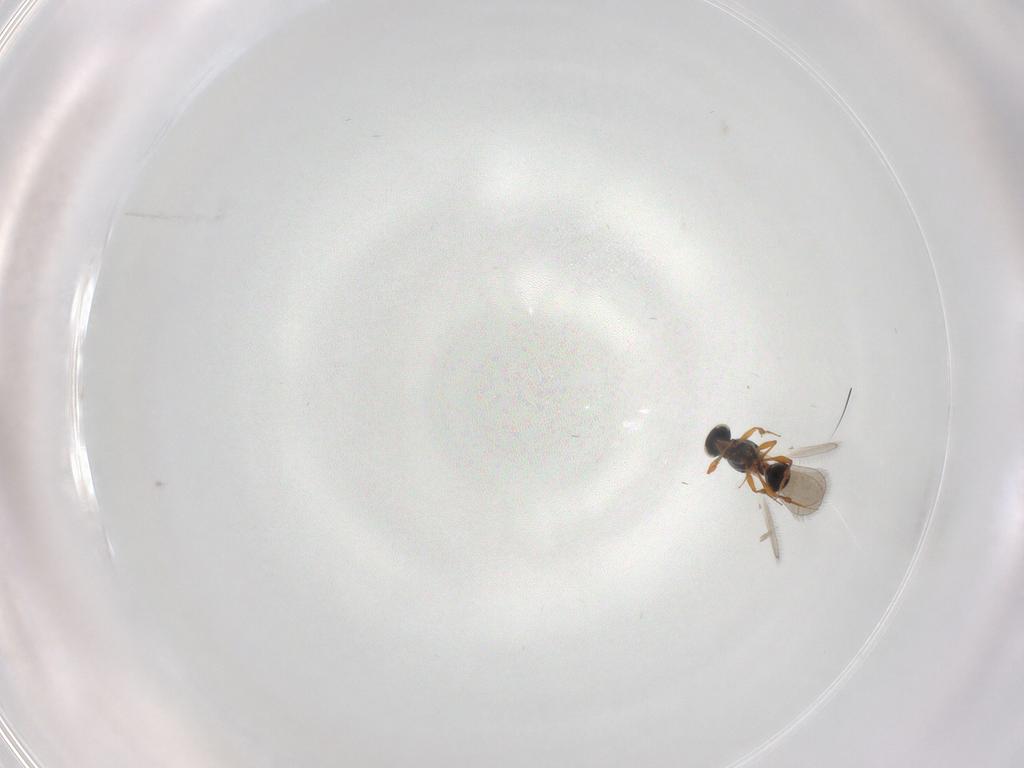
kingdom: Animalia
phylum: Arthropoda
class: Insecta
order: Hymenoptera
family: Platygastridae
